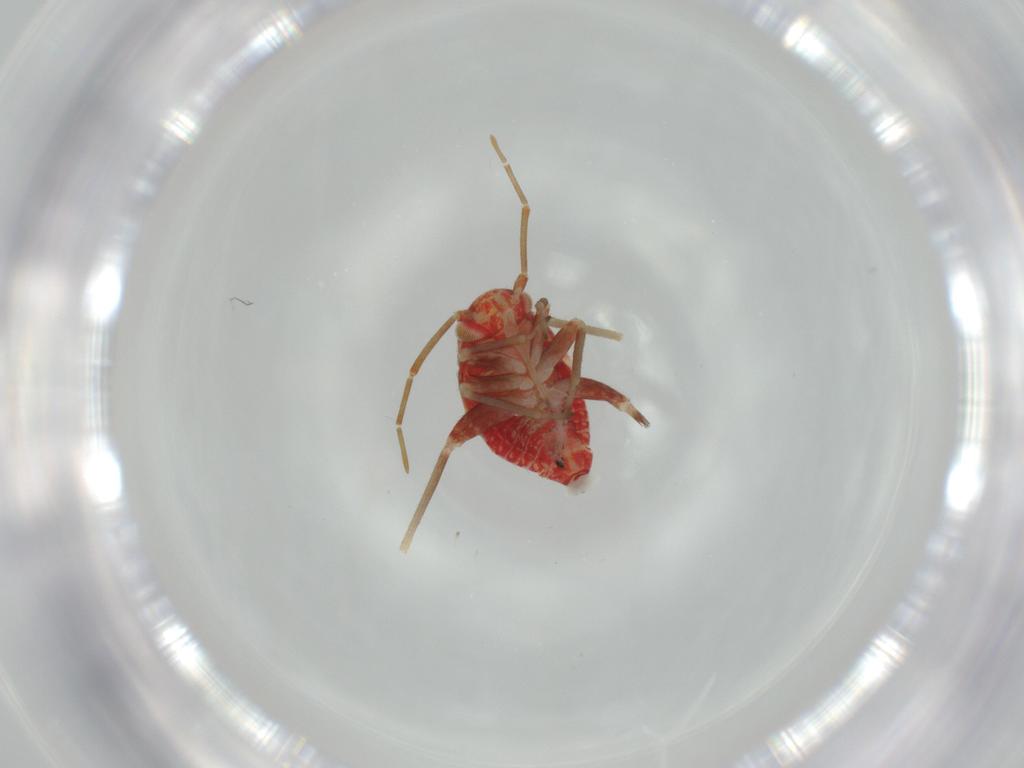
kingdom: Animalia
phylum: Arthropoda
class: Insecta
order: Hemiptera
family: Miridae
